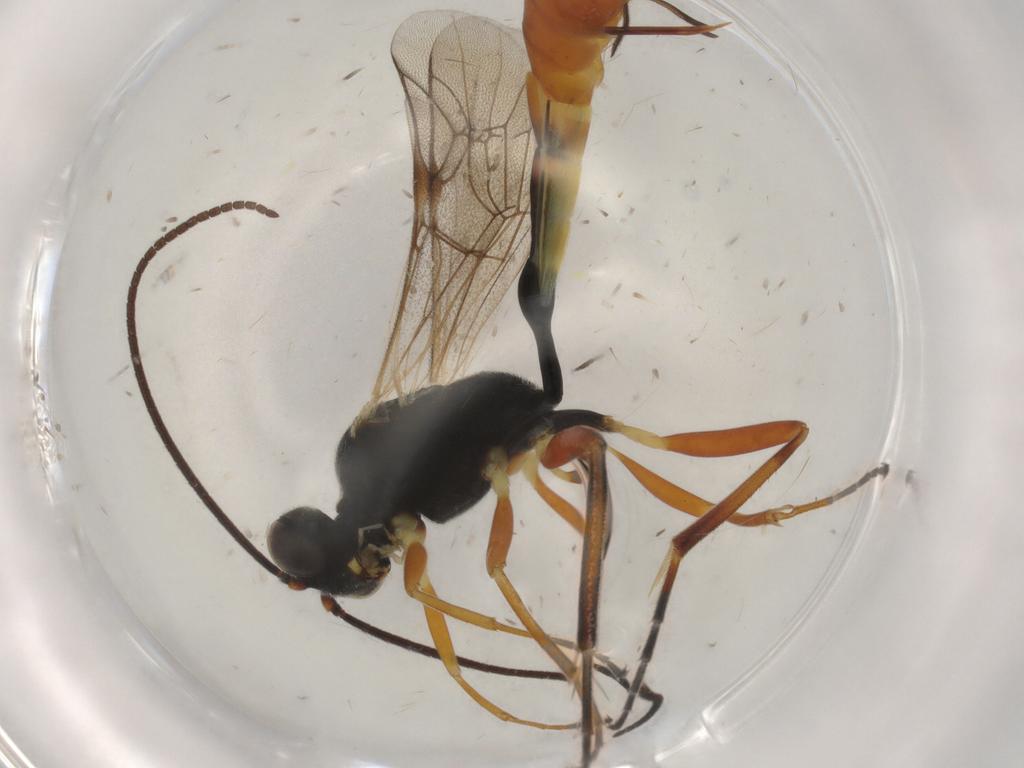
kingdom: Animalia
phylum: Arthropoda
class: Insecta
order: Hymenoptera
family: Ichneumonidae
